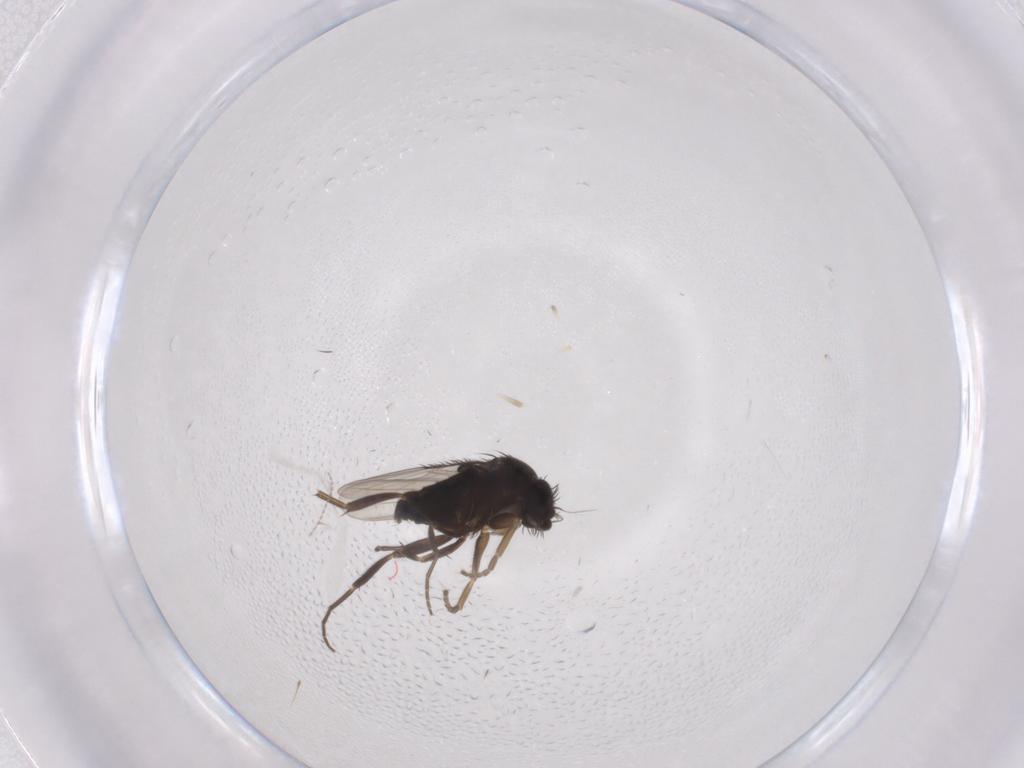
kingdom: Animalia
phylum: Arthropoda
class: Insecta
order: Diptera
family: Phoridae
